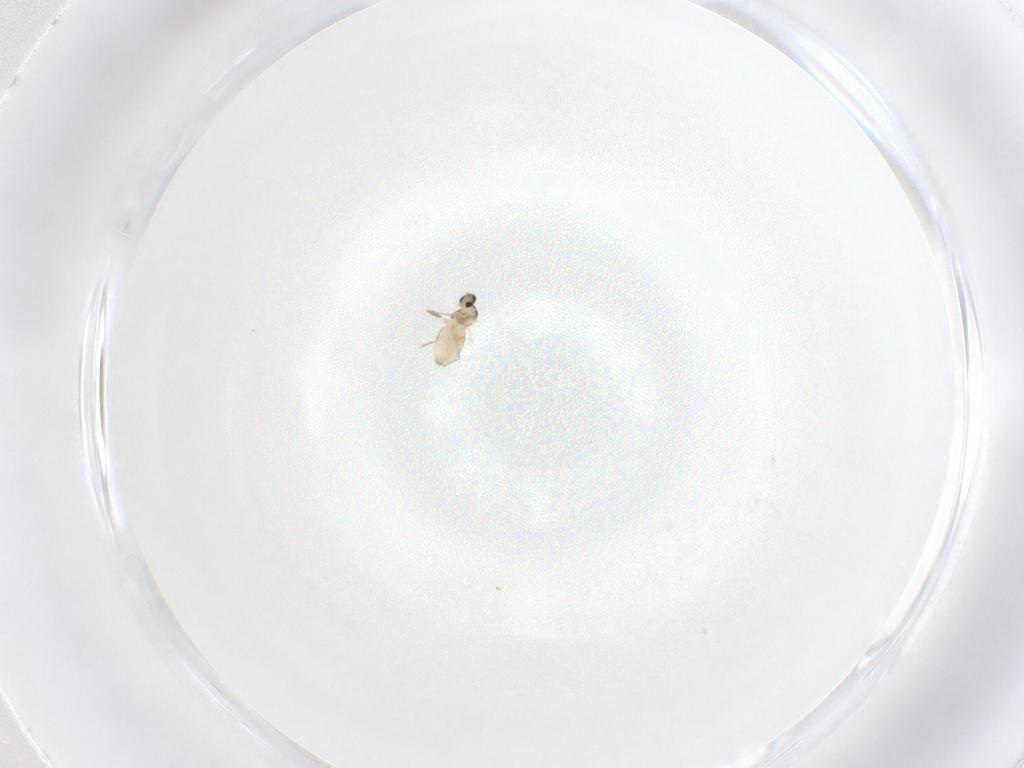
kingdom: Animalia
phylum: Arthropoda
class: Insecta
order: Diptera
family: Cecidomyiidae
